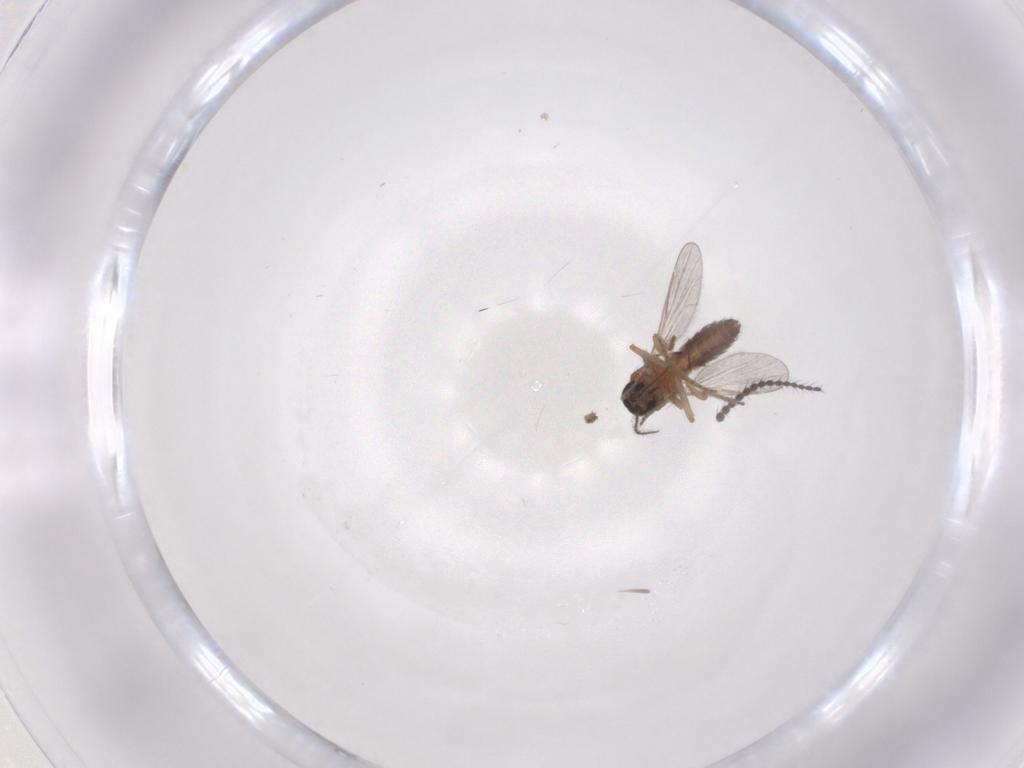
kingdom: Animalia
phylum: Arthropoda
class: Insecta
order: Diptera
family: Ceratopogonidae
